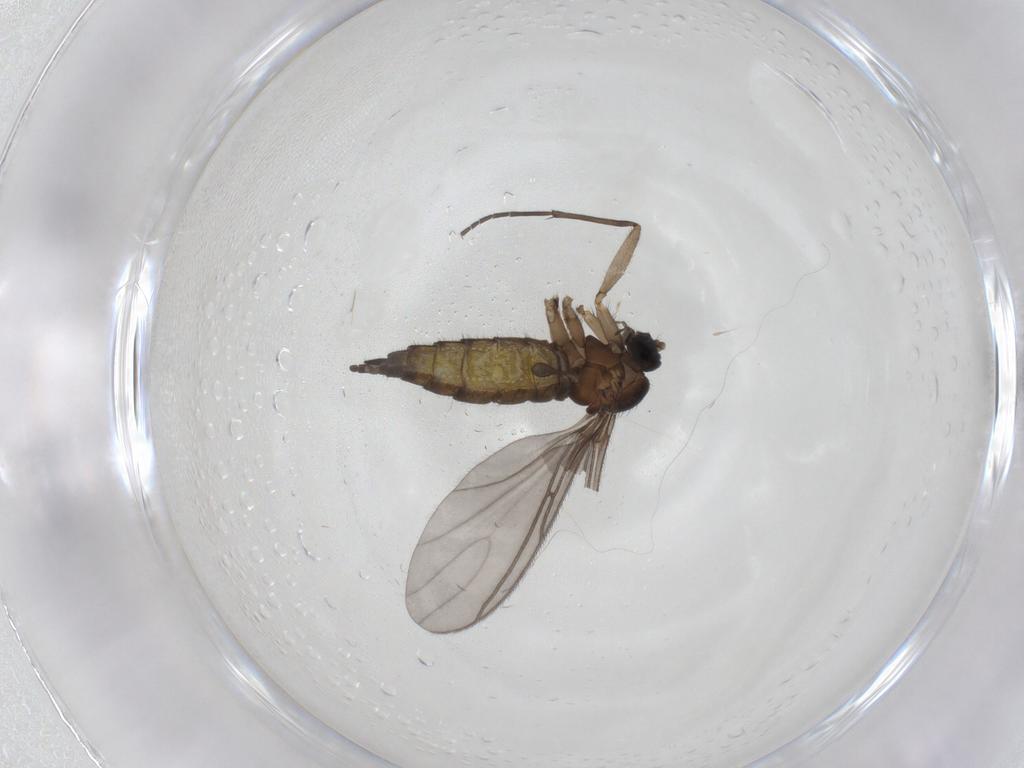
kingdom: Animalia
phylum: Arthropoda
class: Insecta
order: Diptera
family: Sciaridae
